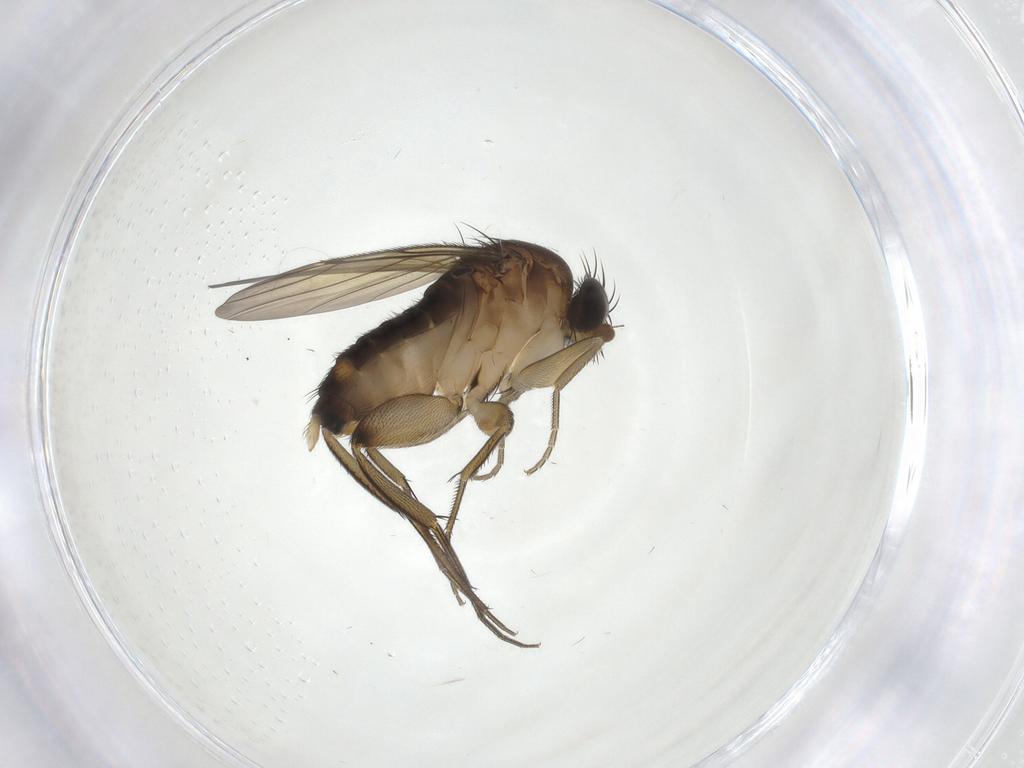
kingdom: Animalia
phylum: Arthropoda
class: Insecta
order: Diptera
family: Phoridae
